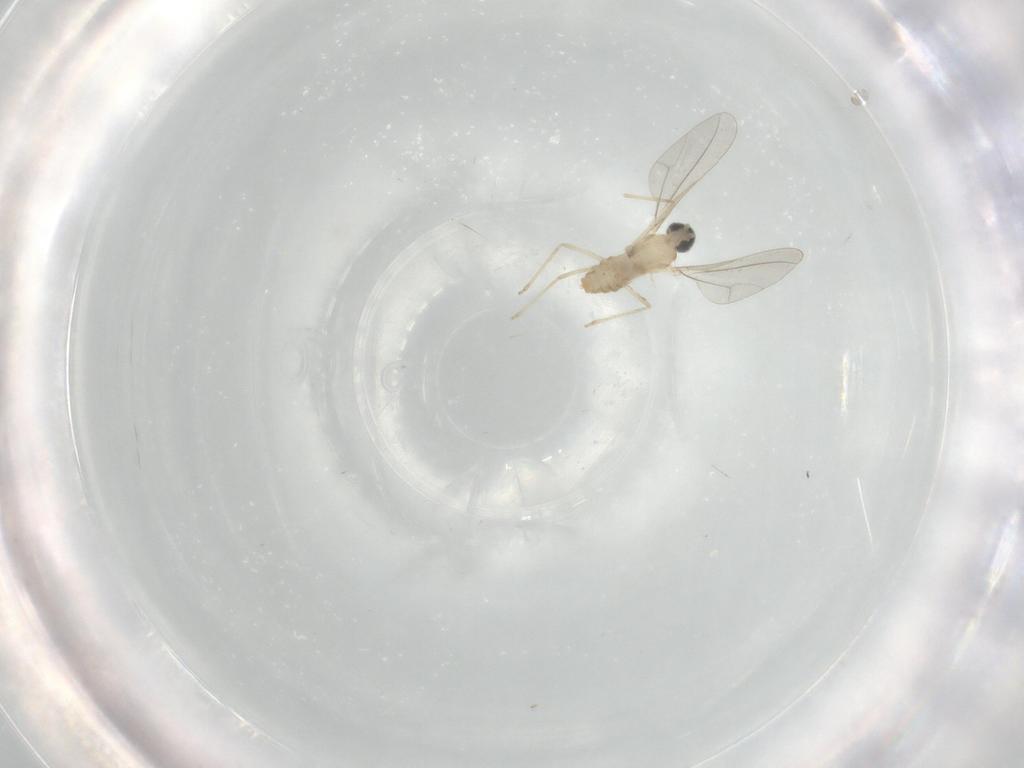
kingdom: Animalia
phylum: Arthropoda
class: Insecta
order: Diptera
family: Cecidomyiidae
